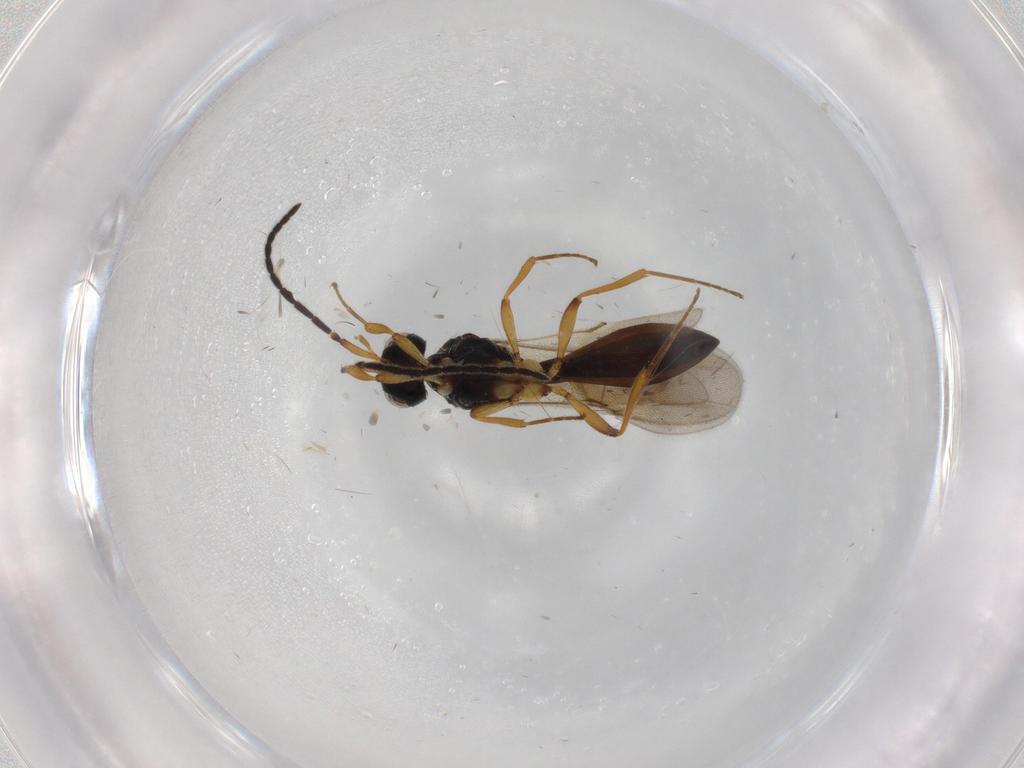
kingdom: Animalia
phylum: Arthropoda
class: Insecta
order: Hymenoptera
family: Scelionidae
